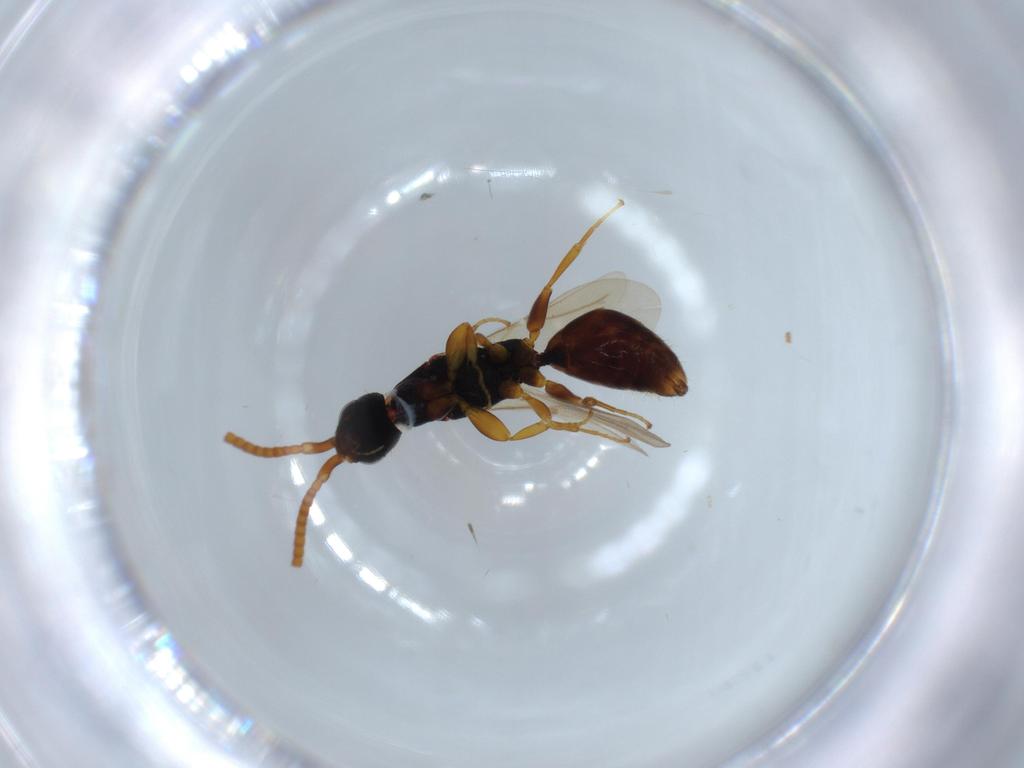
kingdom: Animalia
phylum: Arthropoda
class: Insecta
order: Hymenoptera
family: Bethylidae
